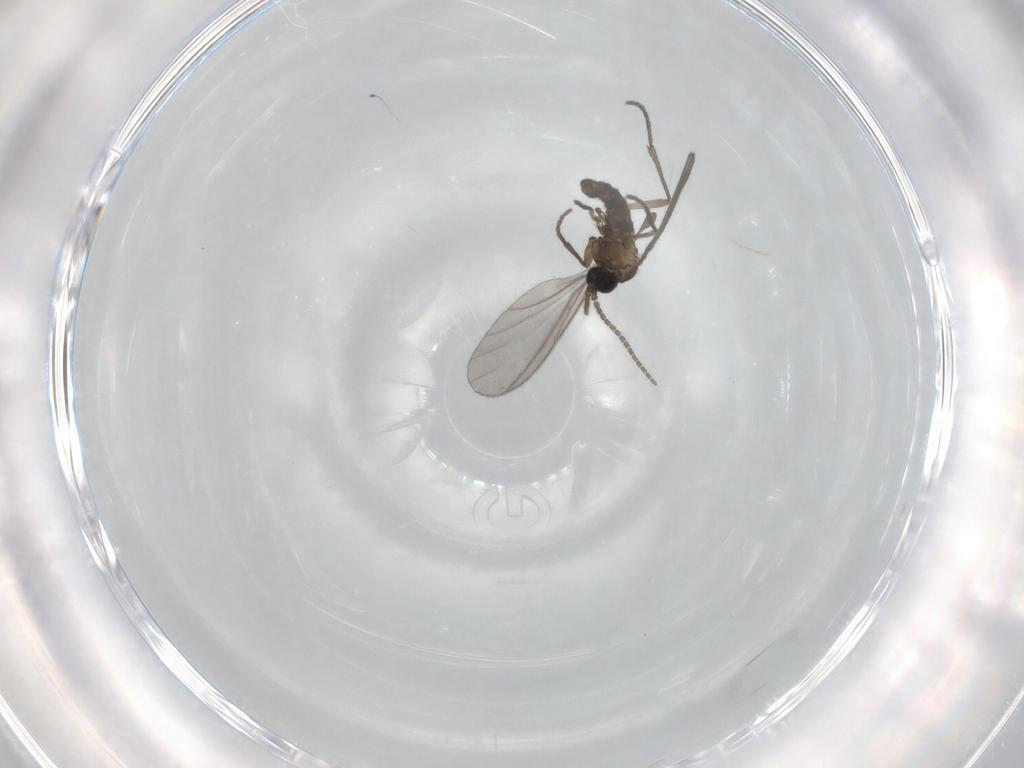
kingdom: Animalia
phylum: Arthropoda
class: Insecta
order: Diptera
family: Sciaridae
